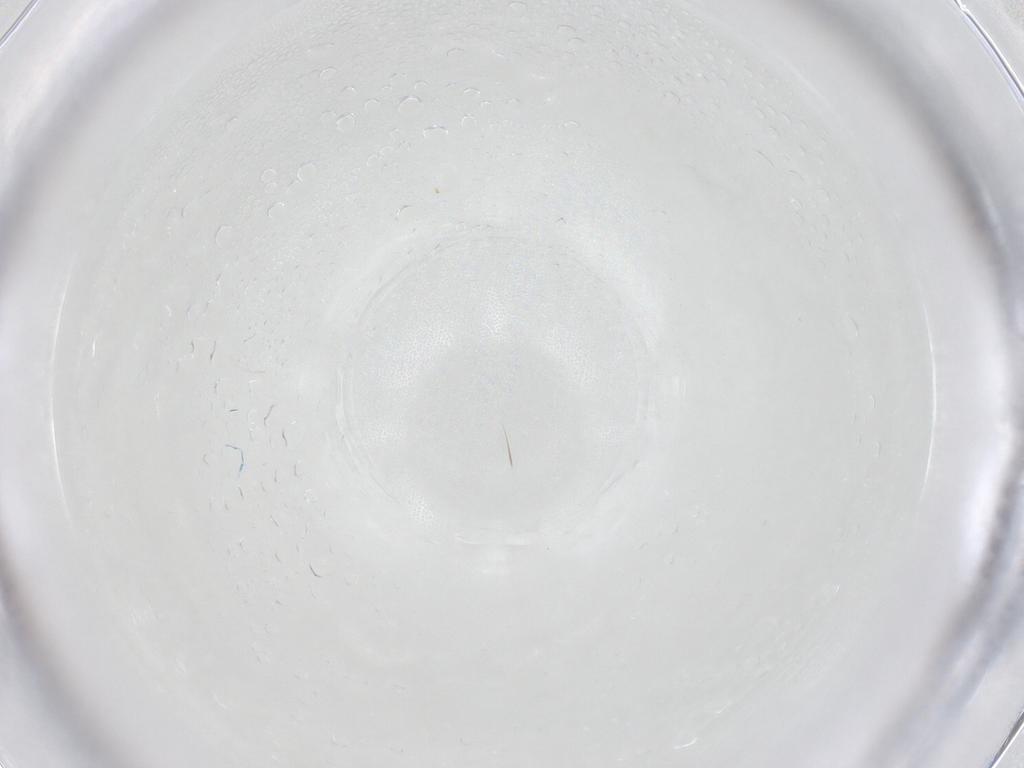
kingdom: Animalia
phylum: Arthropoda
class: Insecta
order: Diptera
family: Cecidomyiidae
